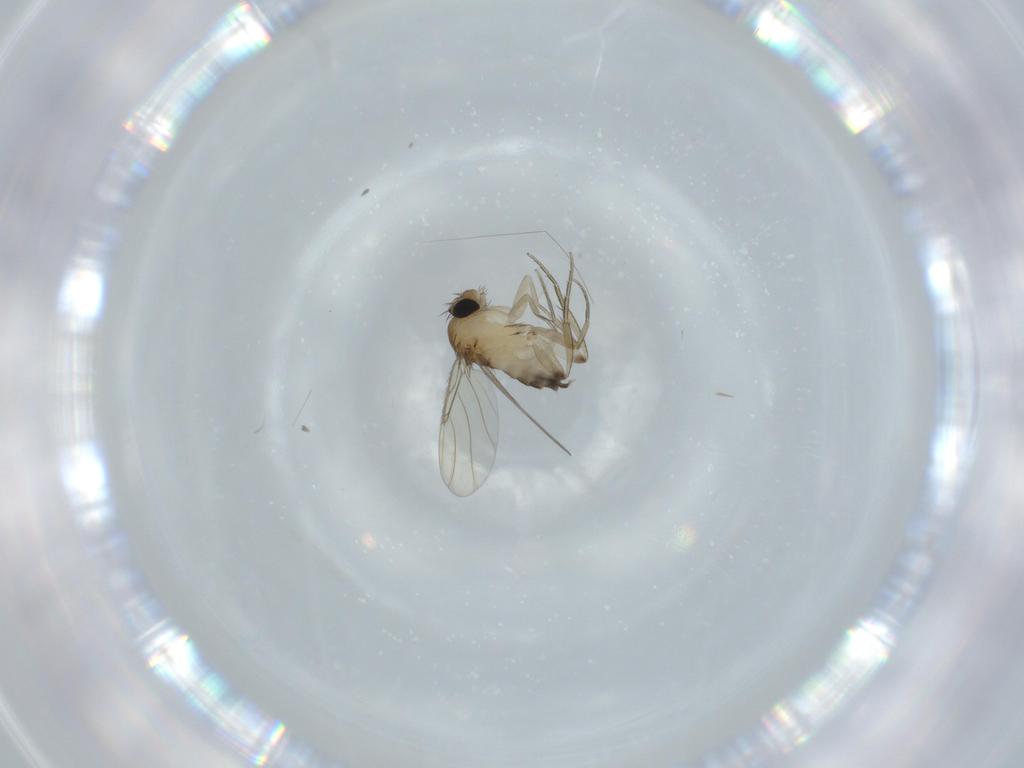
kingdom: Animalia
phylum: Arthropoda
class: Insecta
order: Diptera
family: Phoridae
